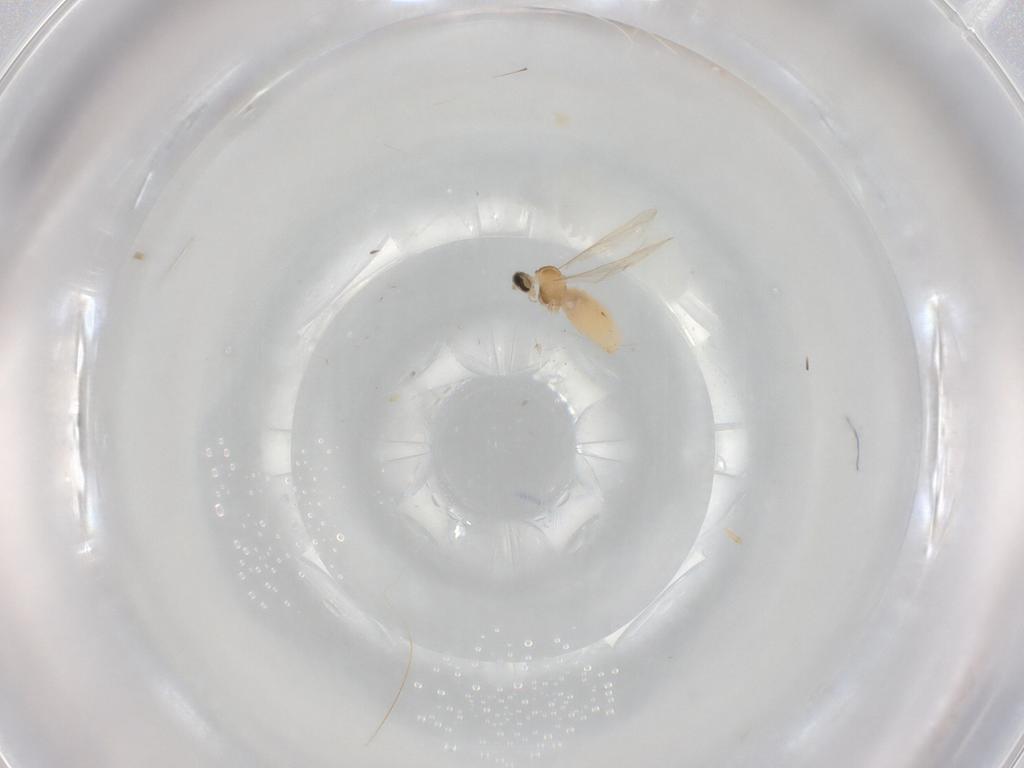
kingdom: Animalia
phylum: Arthropoda
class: Insecta
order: Diptera
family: Cecidomyiidae
